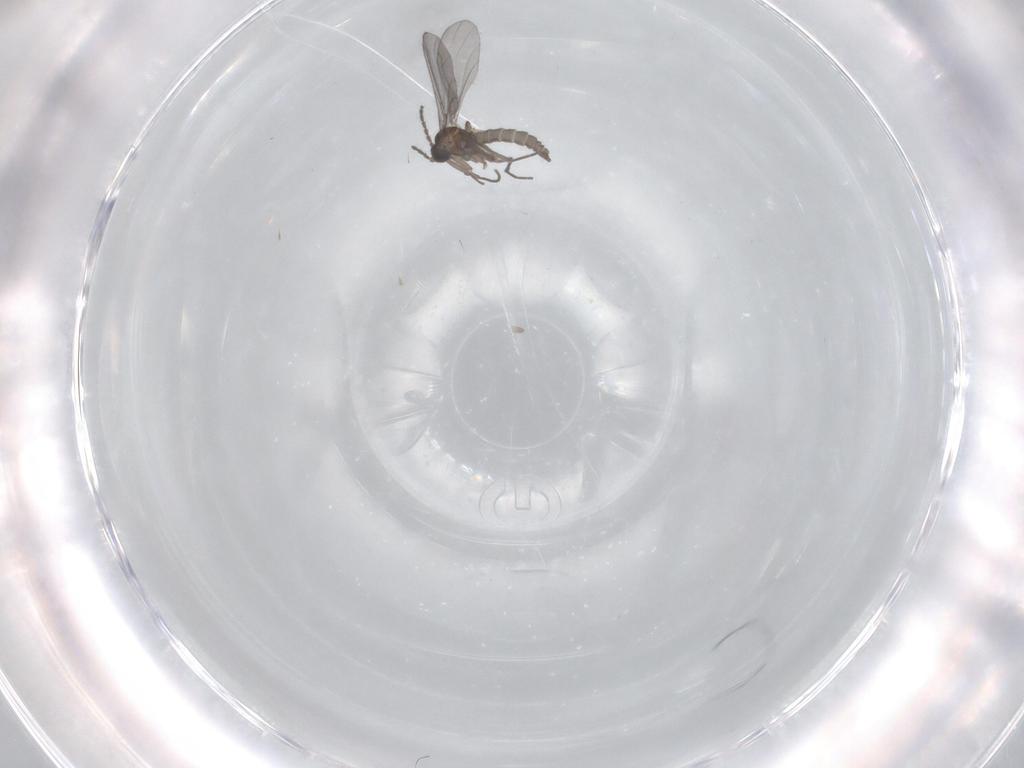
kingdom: Animalia
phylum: Arthropoda
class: Insecta
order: Diptera
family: Sciaridae
